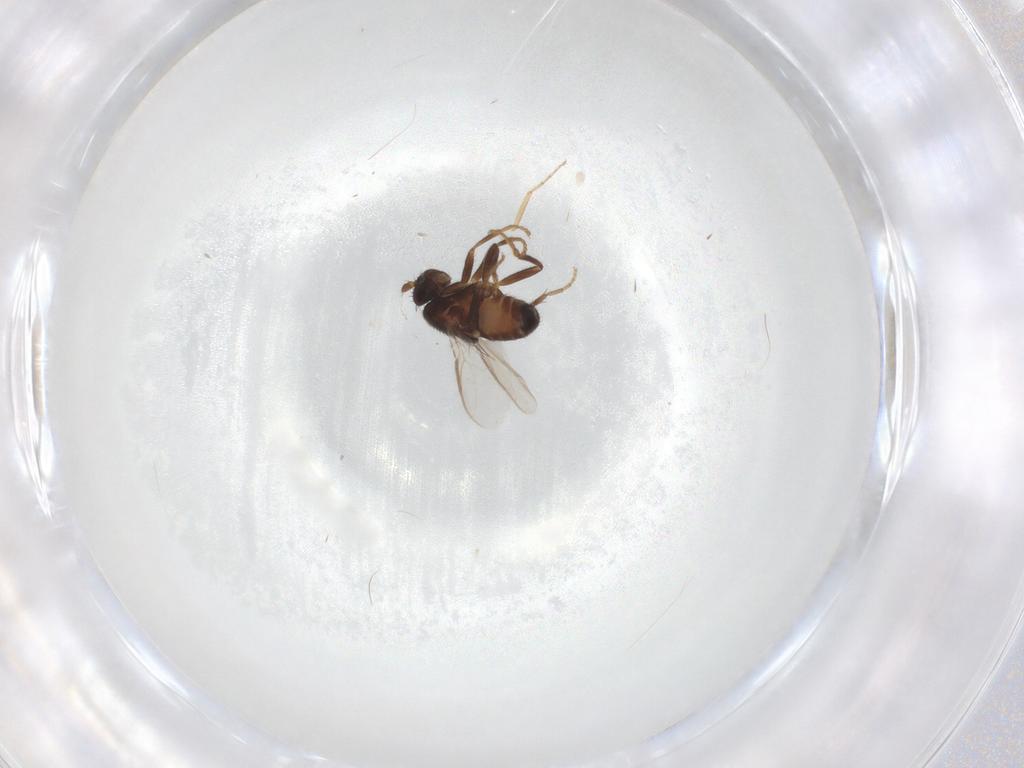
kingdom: Animalia
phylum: Arthropoda
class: Insecta
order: Diptera
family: Sphaeroceridae
